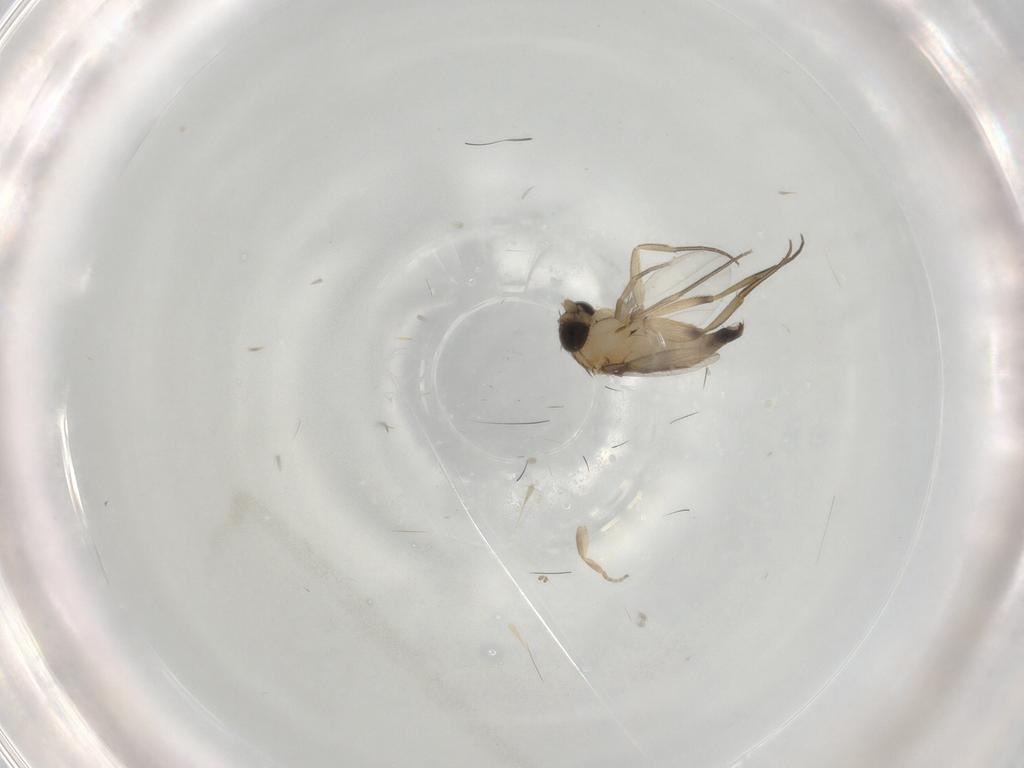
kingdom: Animalia
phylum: Arthropoda
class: Insecta
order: Diptera
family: Phoridae
